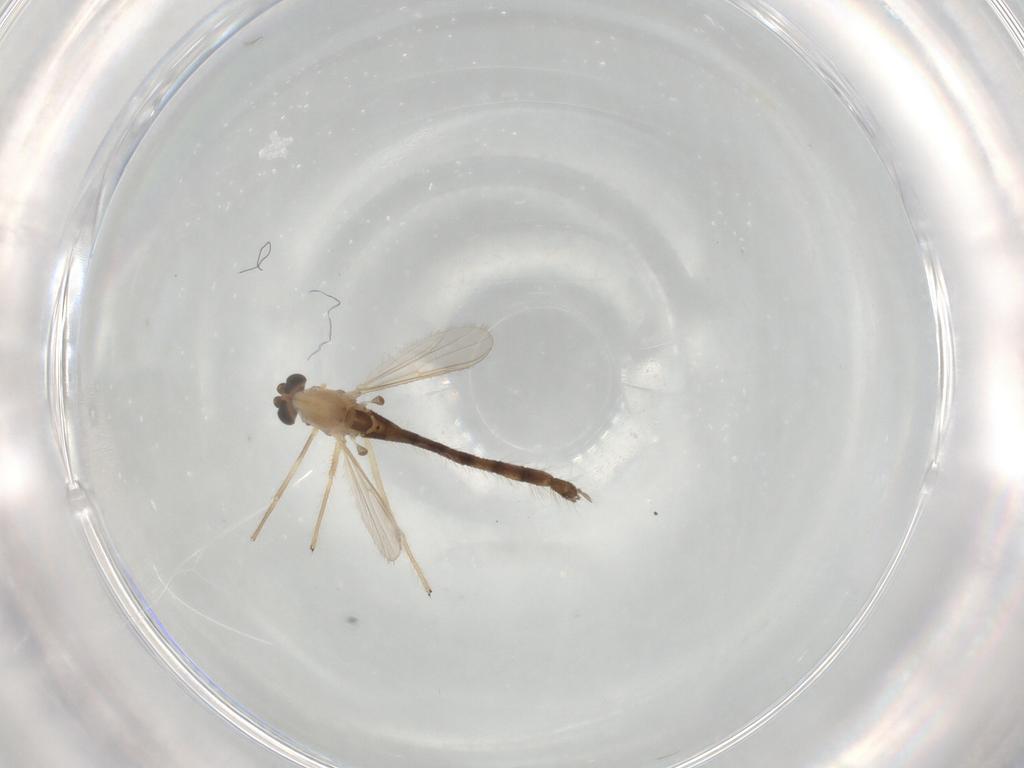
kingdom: Animalia
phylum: Arthropoda
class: Insecta
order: Diptera
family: Chironomidae
